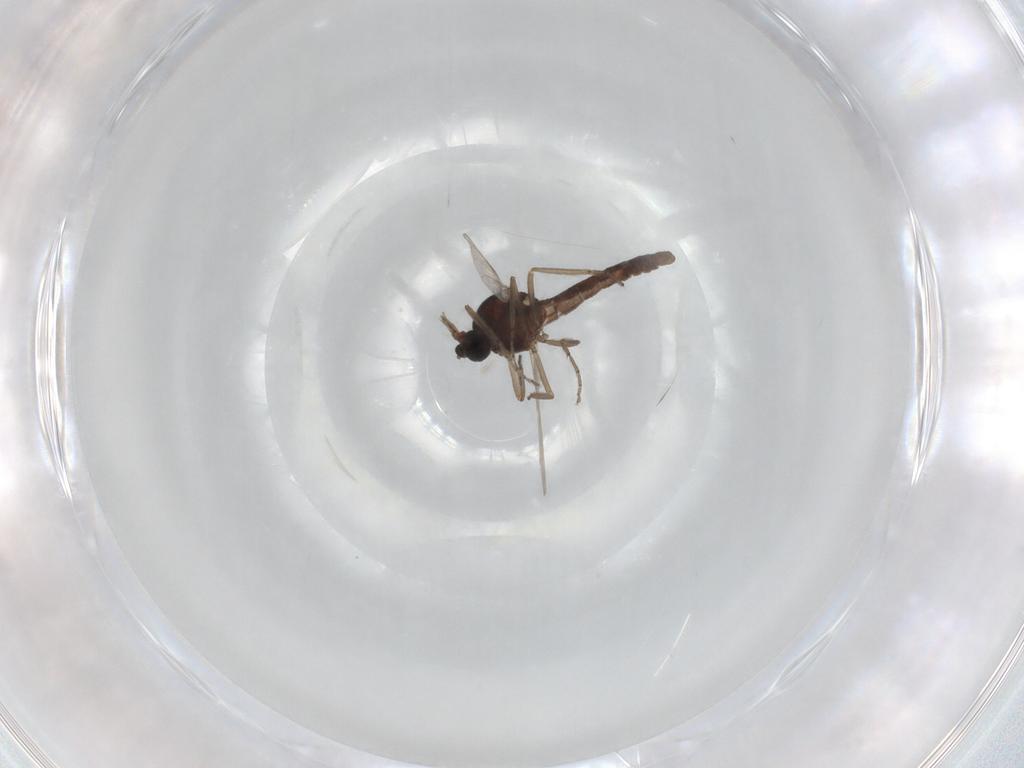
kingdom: Animalia
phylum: Arthropoda
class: Insecta
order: Diptera
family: Ceratopogonidae
